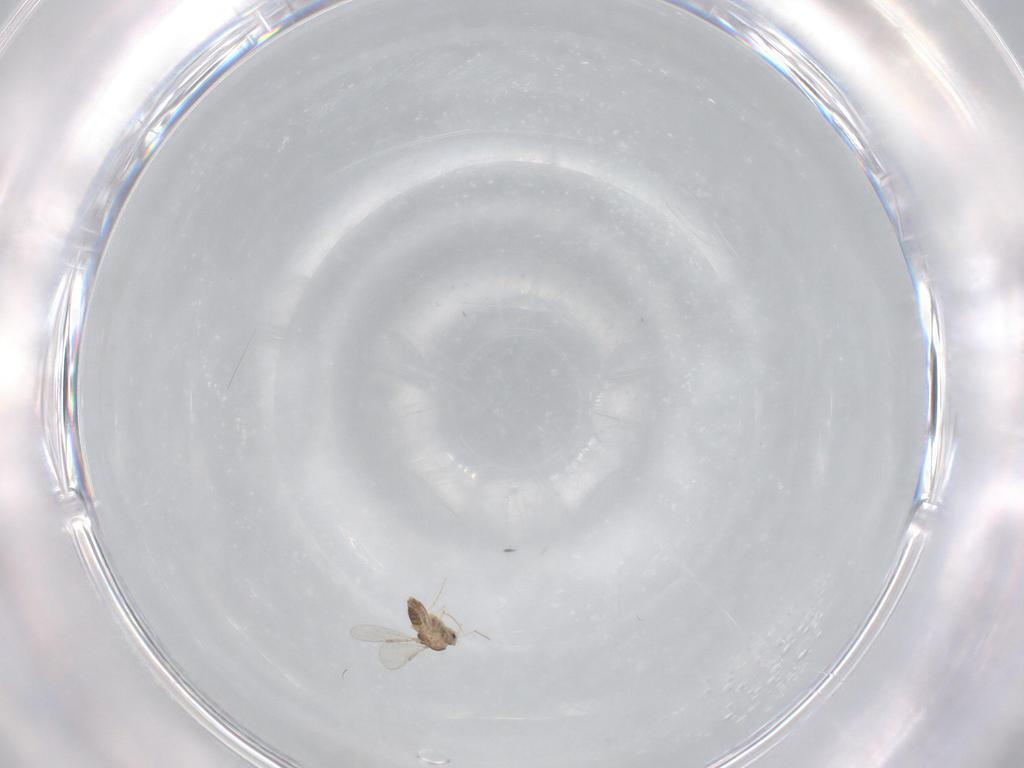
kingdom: Animalia
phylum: Arthropoda
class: Insecta
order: Diptera
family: Chironomidae
